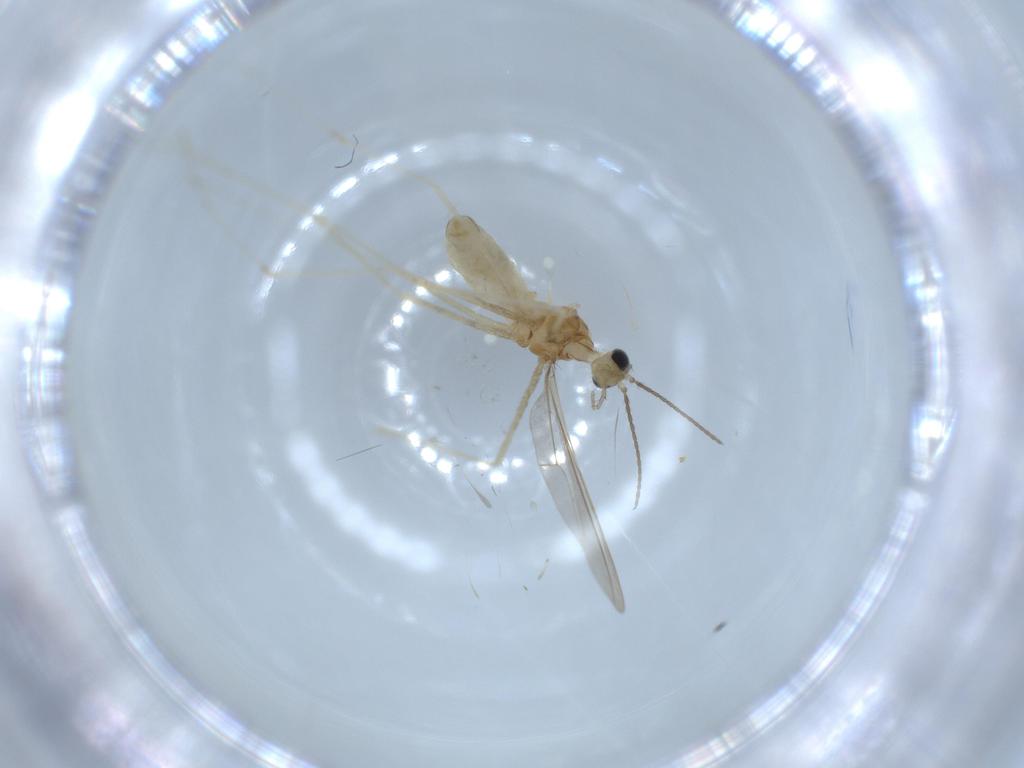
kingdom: Animalia
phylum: Arthropoda
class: Insecta
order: Diptera
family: Cecidomyiidae
